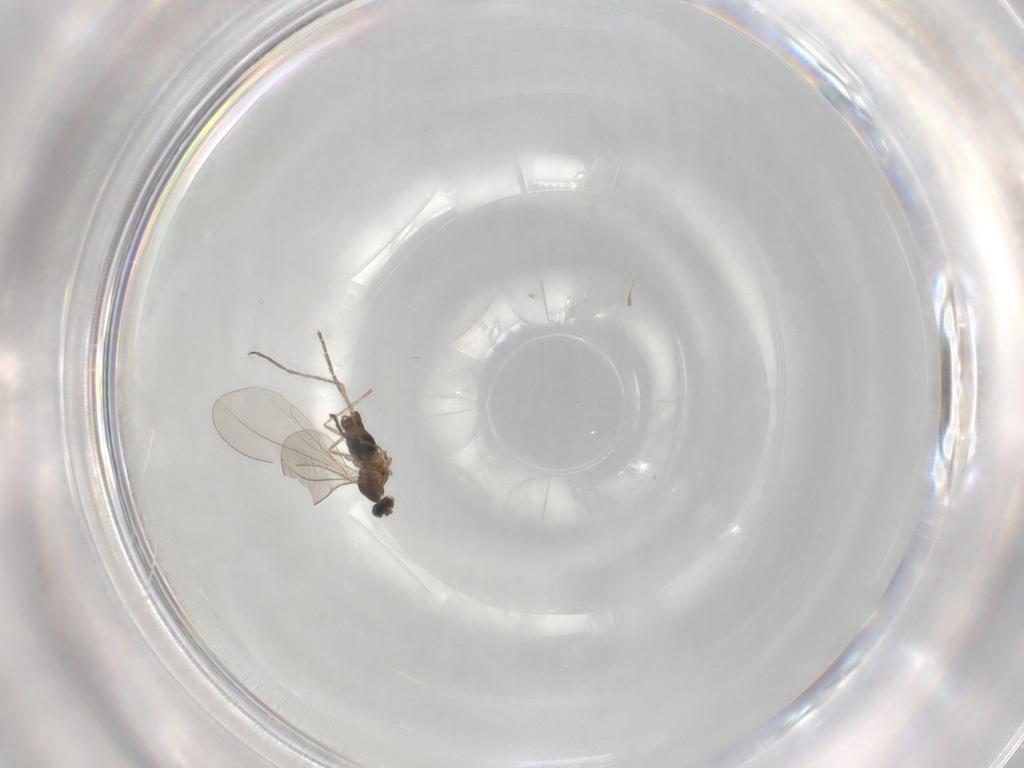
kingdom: Animalia
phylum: Arthropoda
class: Insecta
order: Diptera
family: Cecidomyiidae
